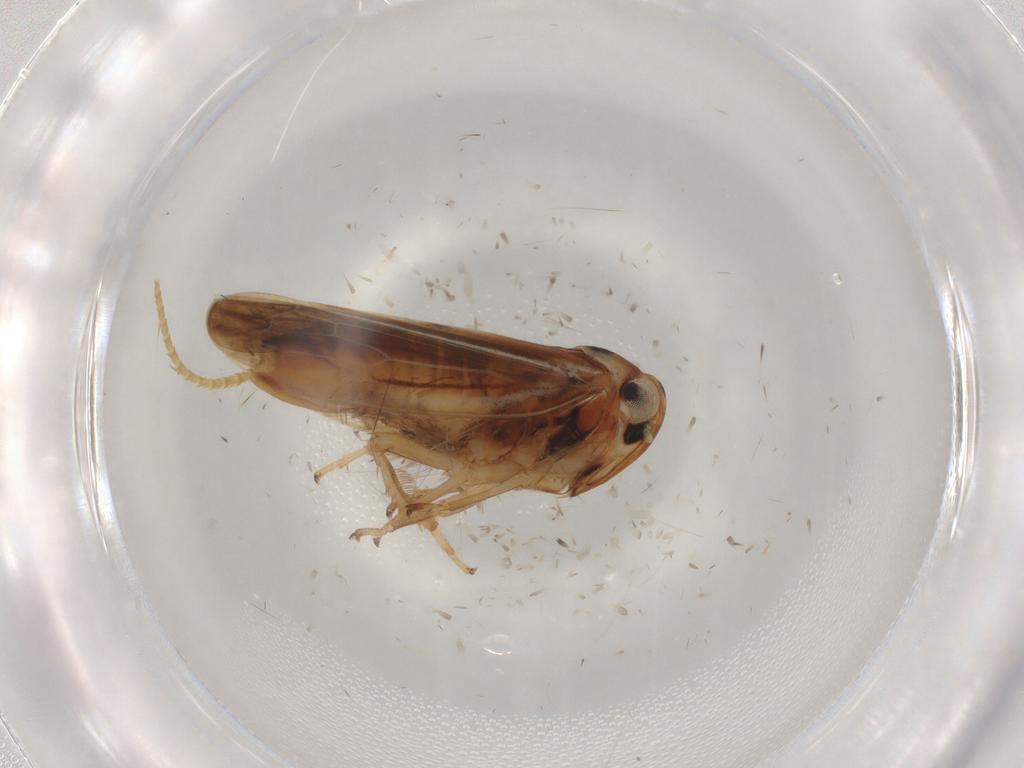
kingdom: Animalia
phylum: Arthropoda
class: Insecta
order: Hemiptera
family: Cicadellidae
